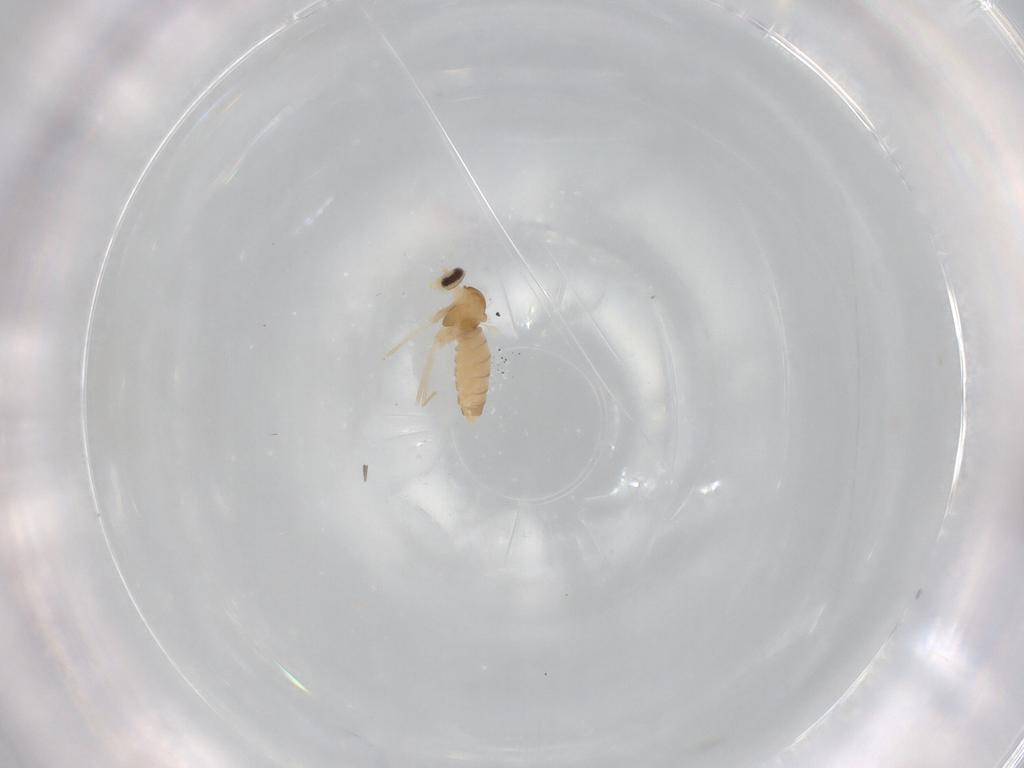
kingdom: Animalia
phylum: Arthropoda
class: Insecta
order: Diptera
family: Cecidomyiidae
